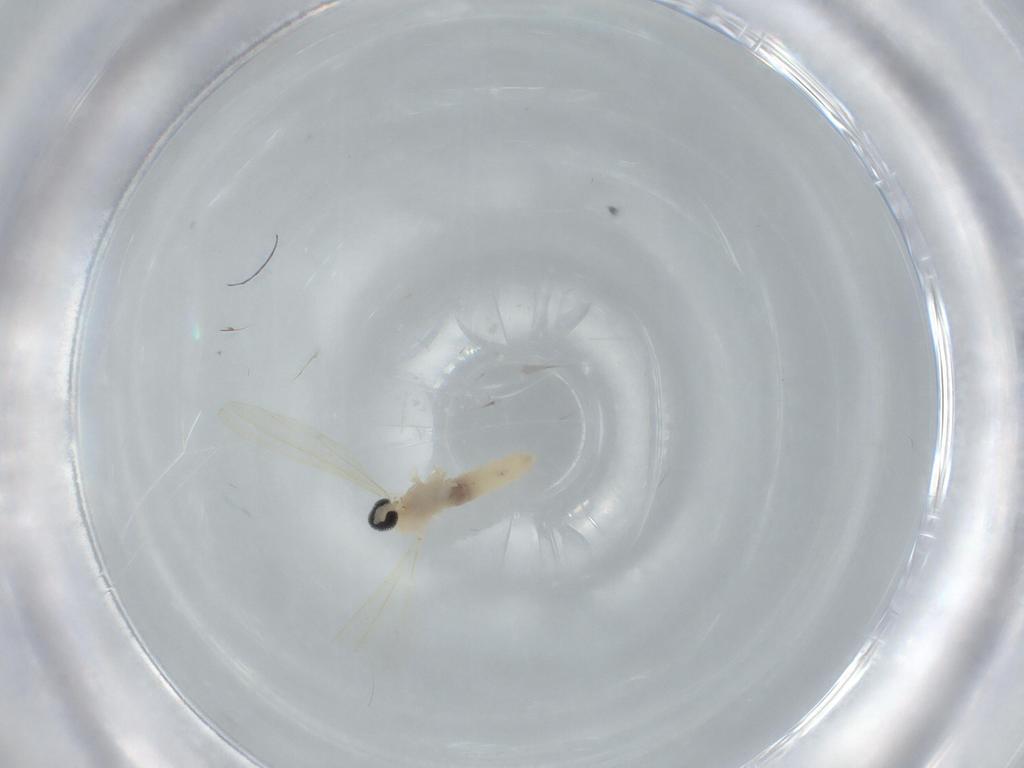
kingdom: Animalia
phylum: Arthropoda
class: Insecta
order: Diptera
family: Cecidomyiidae
